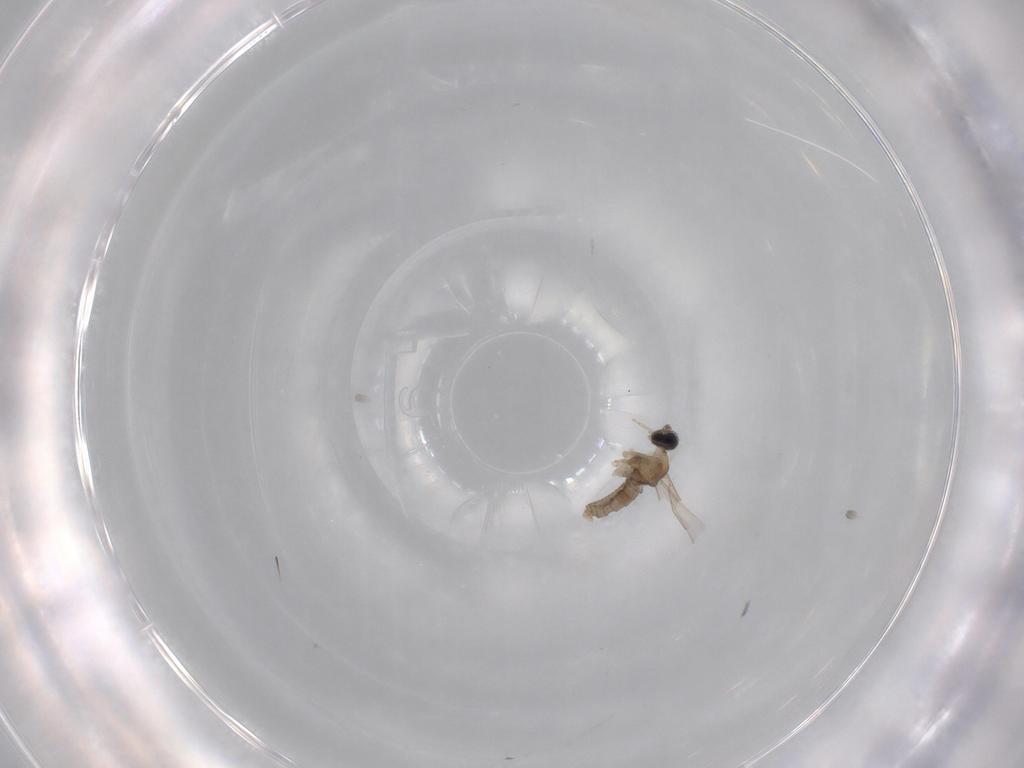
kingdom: Animalia
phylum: Arthropoda
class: Insecta
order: Diptera
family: Cecidomyiidae
